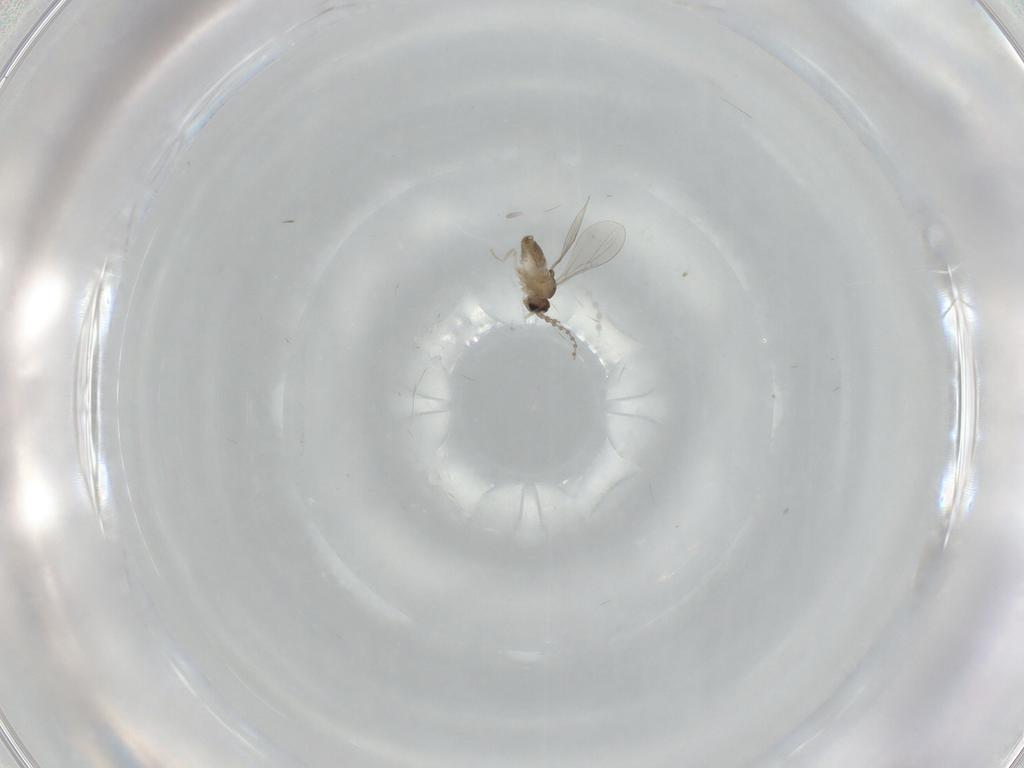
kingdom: Animalia
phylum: Arthropoda
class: Insecta
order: Diptera
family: Cecidomyiidae
